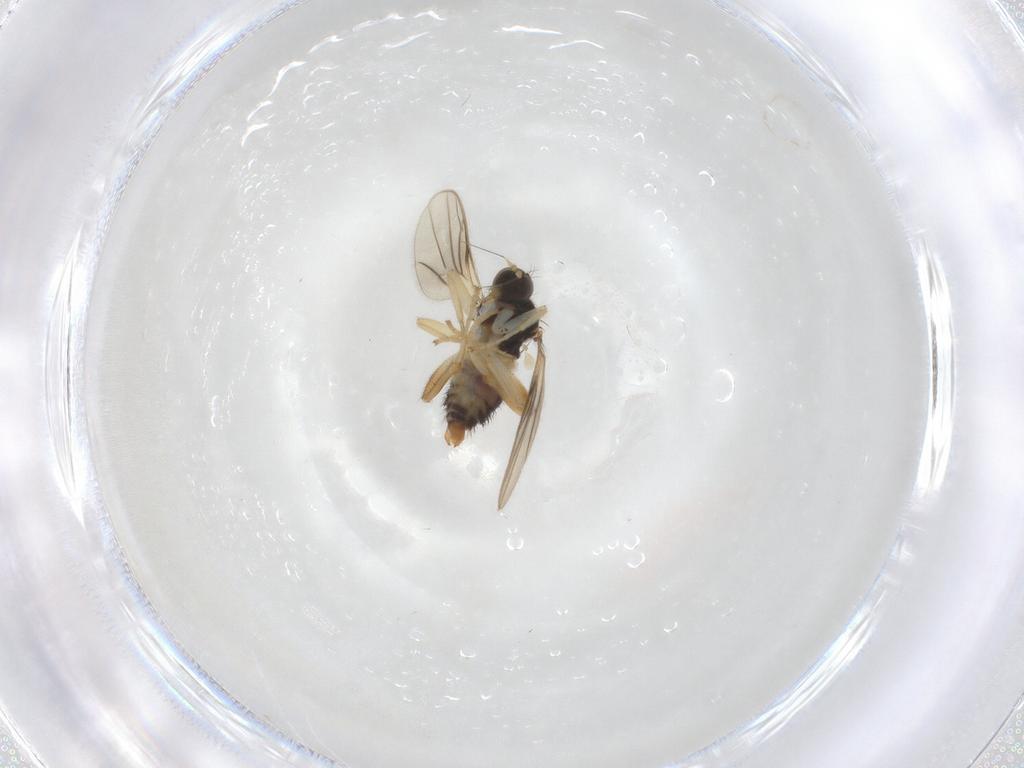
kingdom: Animalia
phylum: Arthropoda
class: Insecta
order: Diptera
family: Hybotidae
